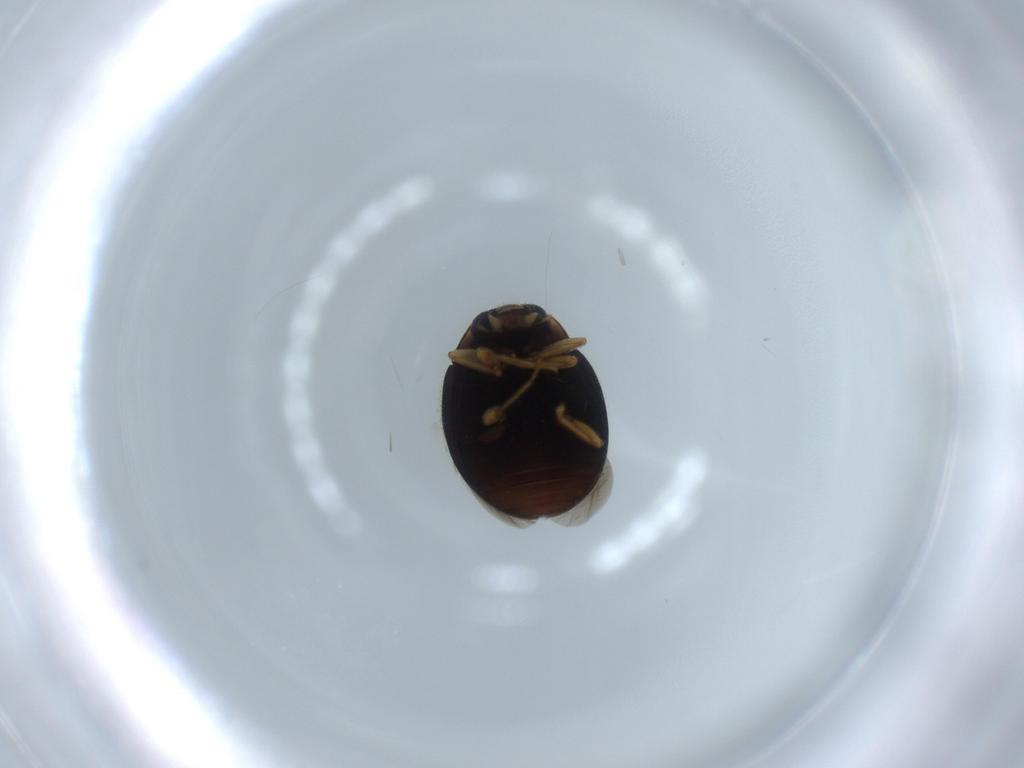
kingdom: Animalia
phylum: Arthropoda
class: Insecta
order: Coleoptera
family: Coccinellidae
